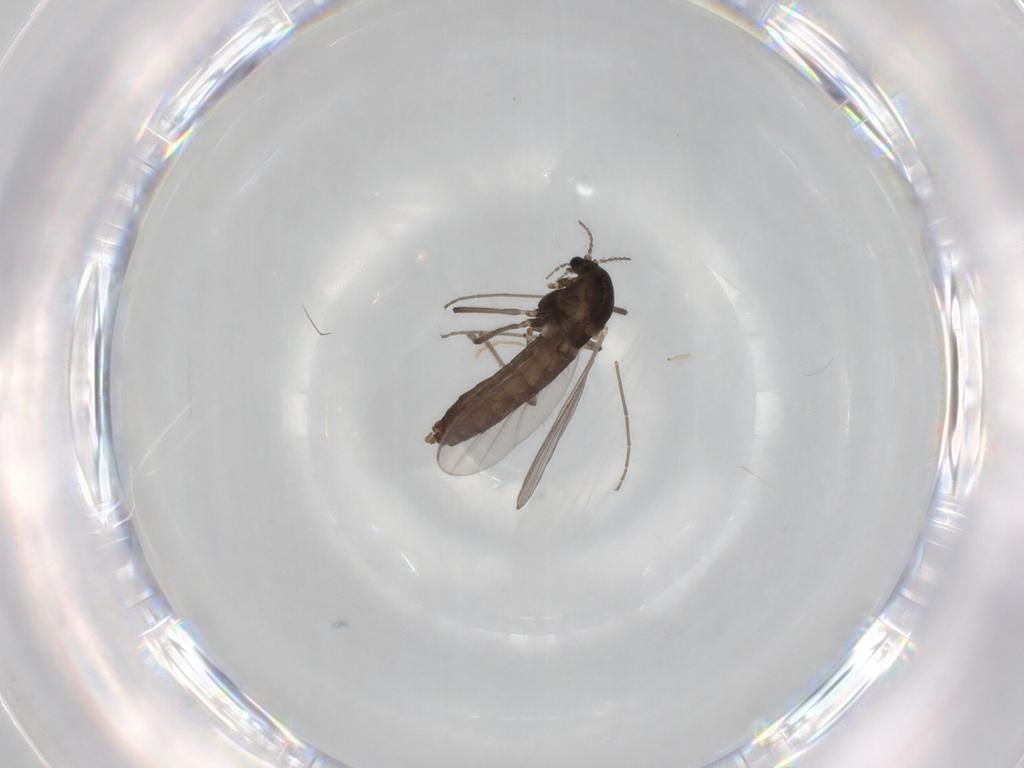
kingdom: Animalia
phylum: Arthropoda
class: Insecta
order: Diptera
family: Chironomidae
